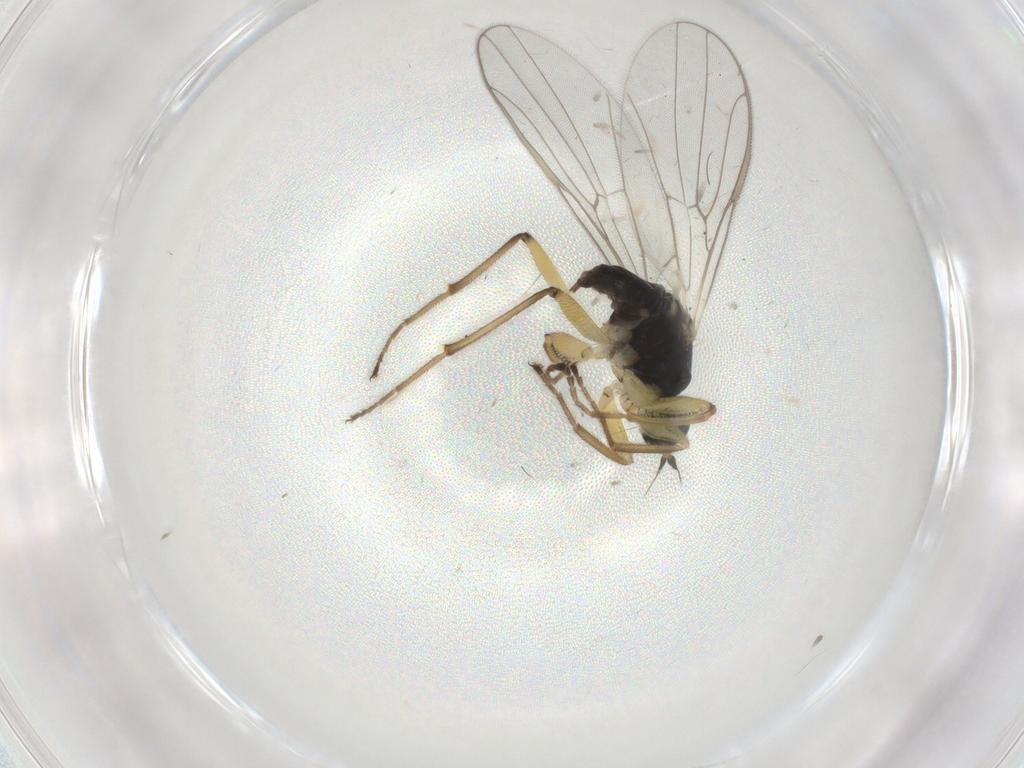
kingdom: Animalia
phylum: Arthropoda
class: Insecta
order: Diptera
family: Hybotidae
